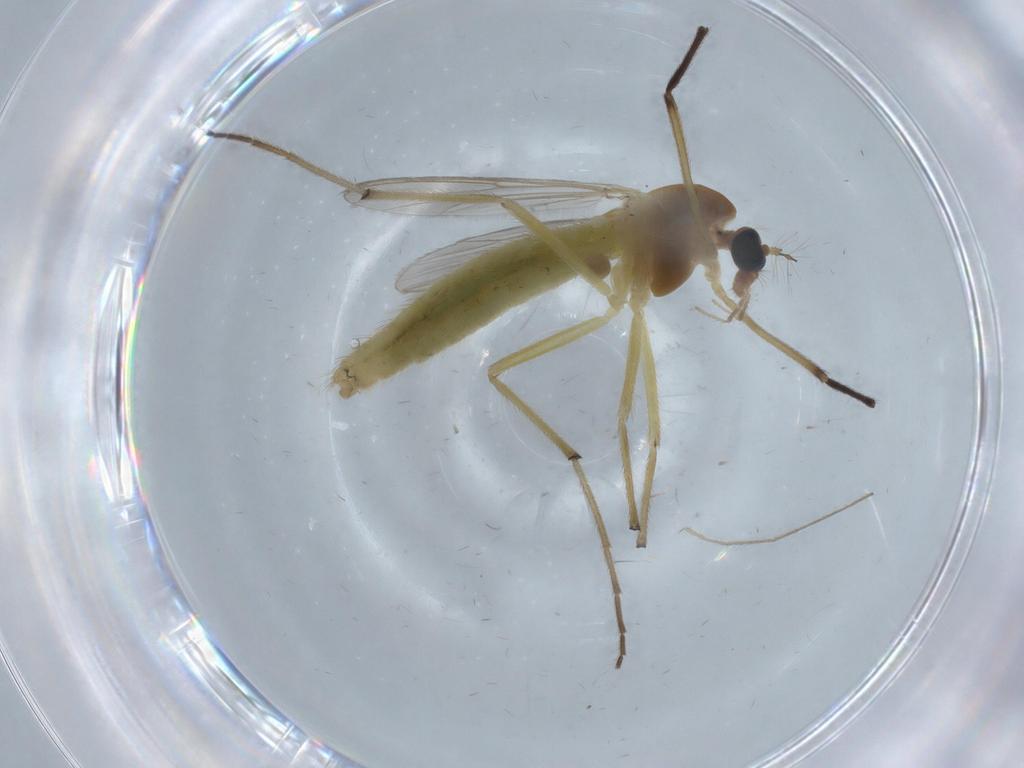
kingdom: Animalia
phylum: Arthropoda
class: Insecta
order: Diptera
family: Chironomidae
